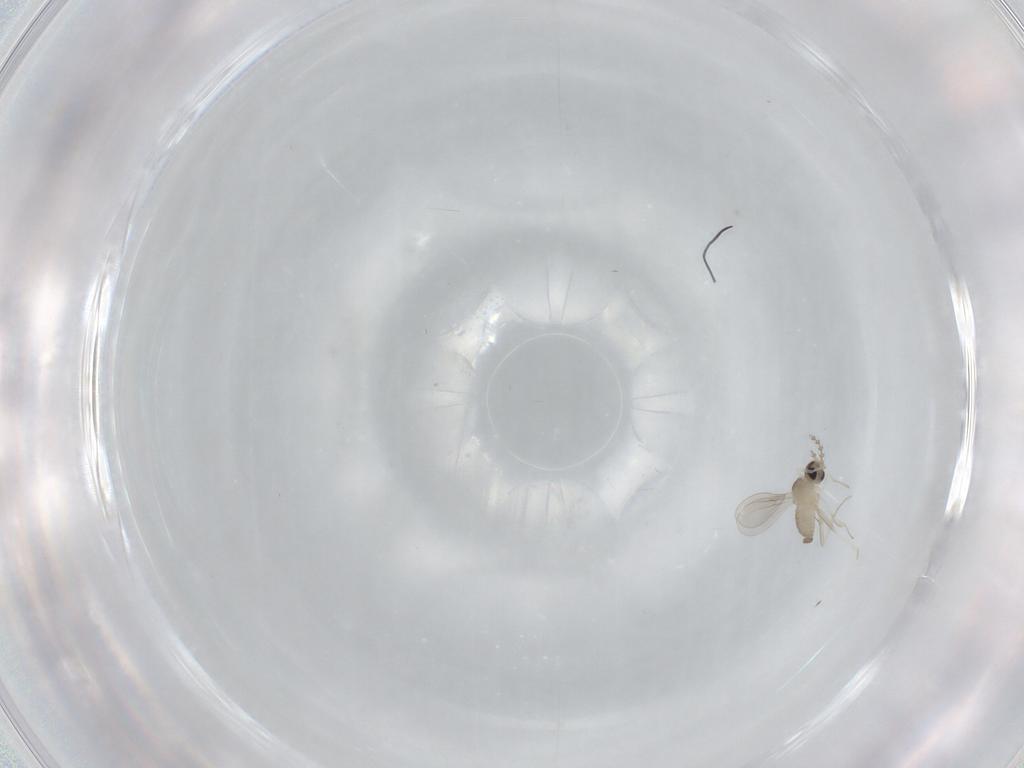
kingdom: Animalia
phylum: Arthropoda
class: Insecta
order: Diptera
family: Cecidomyiidae
